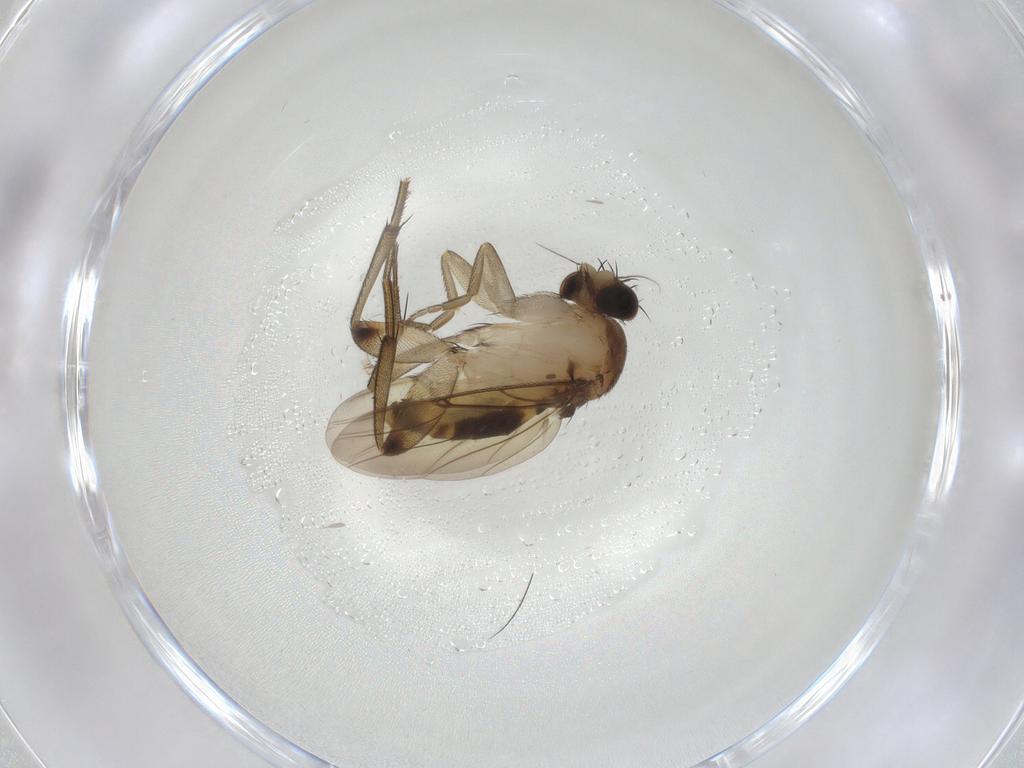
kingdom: Animalia
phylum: Arthropoda
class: Insecta
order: Diptera
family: Phoridae
